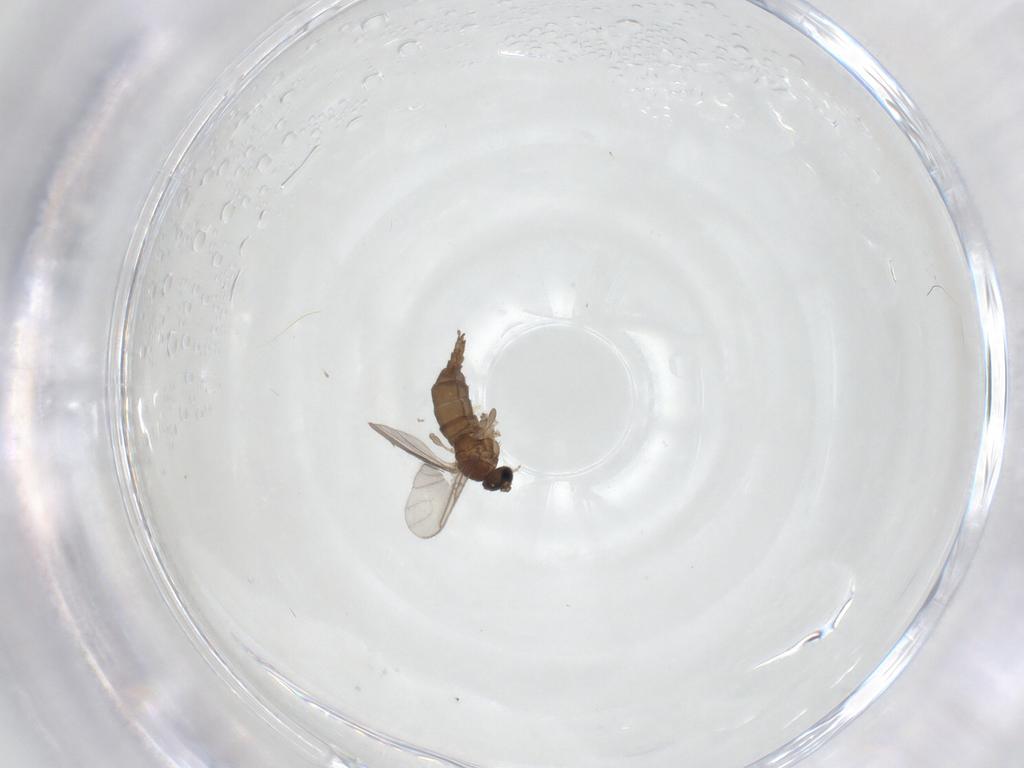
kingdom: Animalia
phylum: Arthropoda
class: Insecta
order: Diptera
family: Sciaridae
